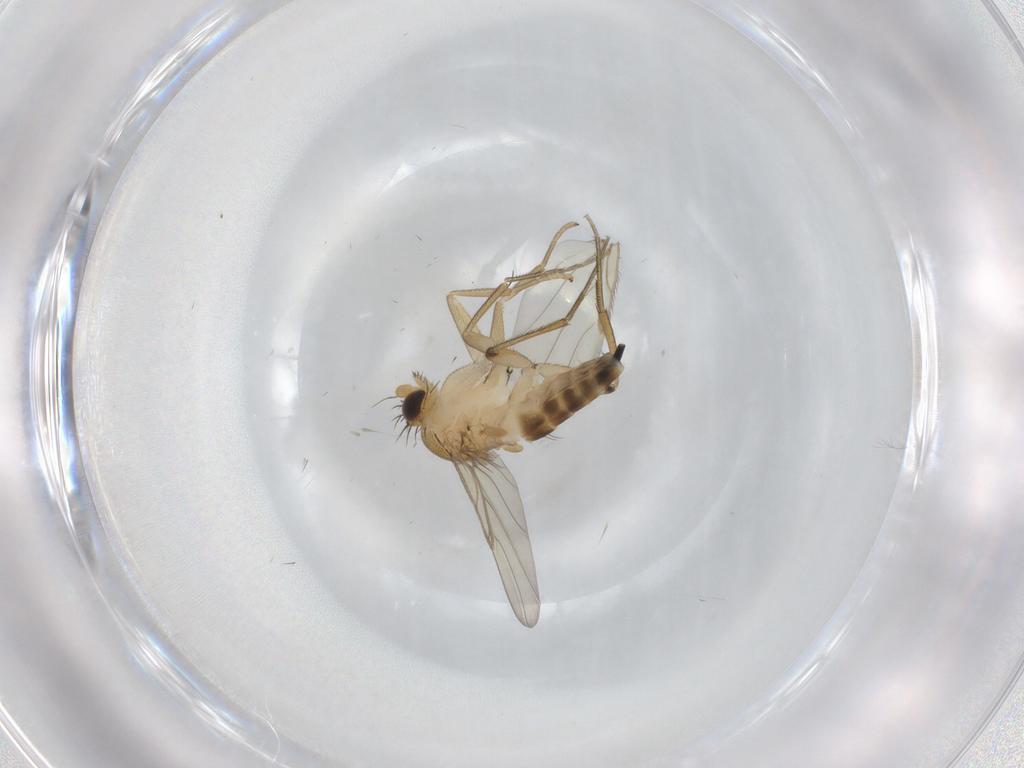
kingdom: Animalia
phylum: Arthropoda
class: Insecta
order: Diptera
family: Phoridae
